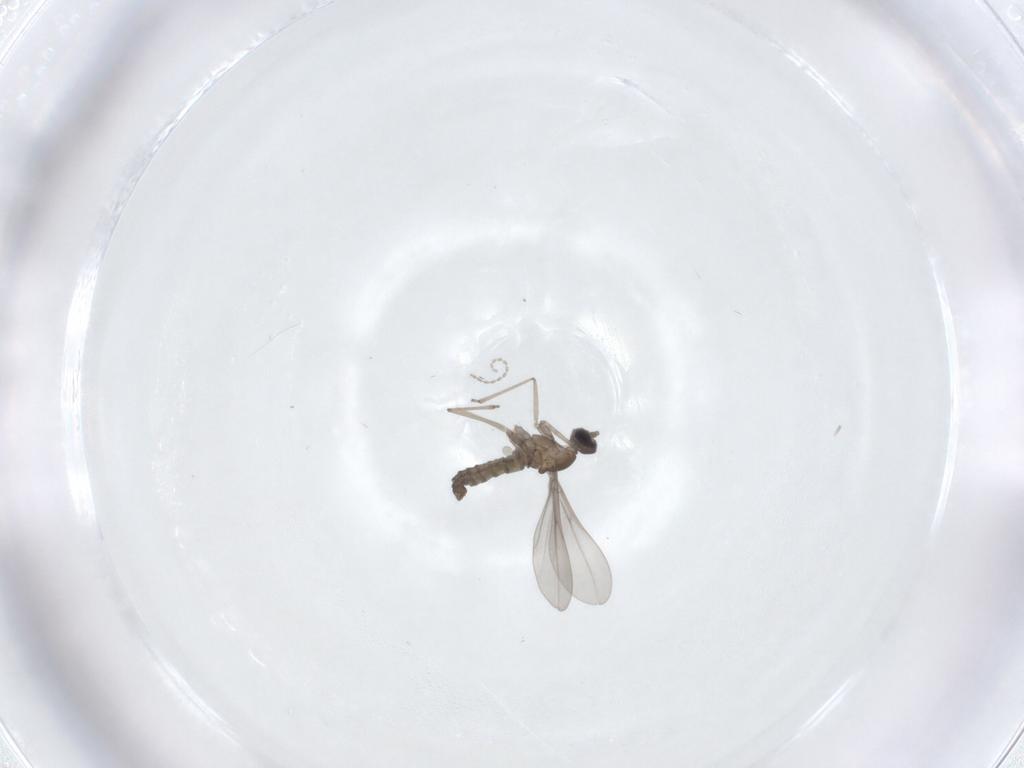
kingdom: Animalia
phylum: Arthropoda
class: Insecta
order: Diptera
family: Cecidomyiidae
